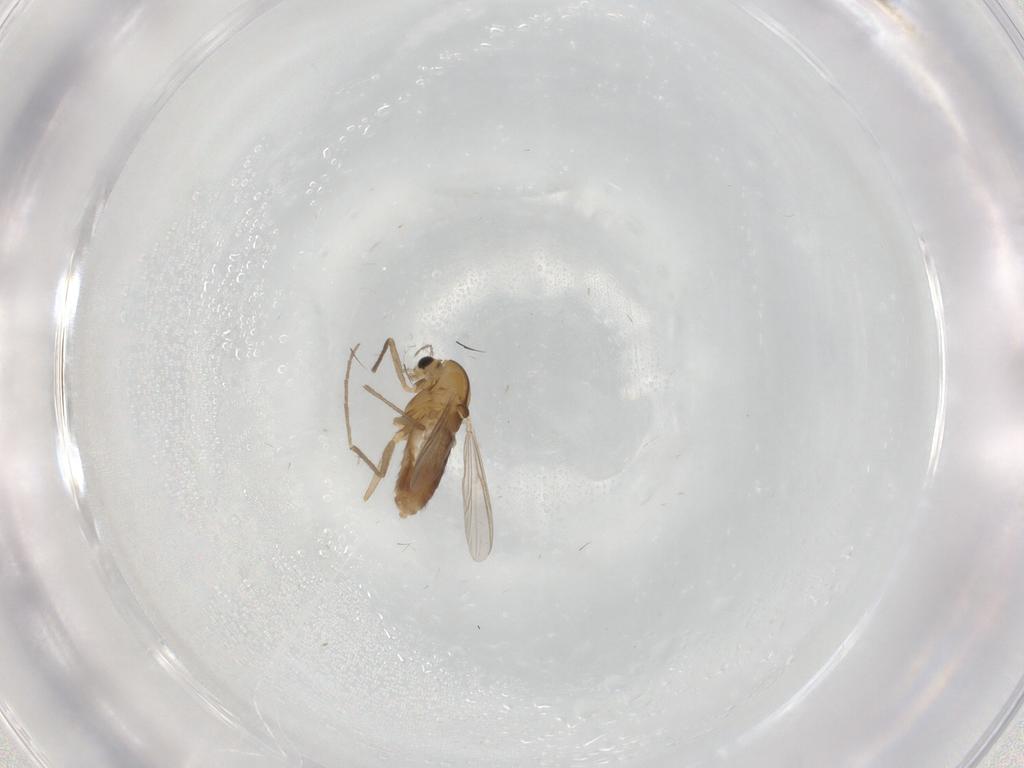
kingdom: Animalia
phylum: Arthropoda
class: Insecta
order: Diptera
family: Chironomidae
